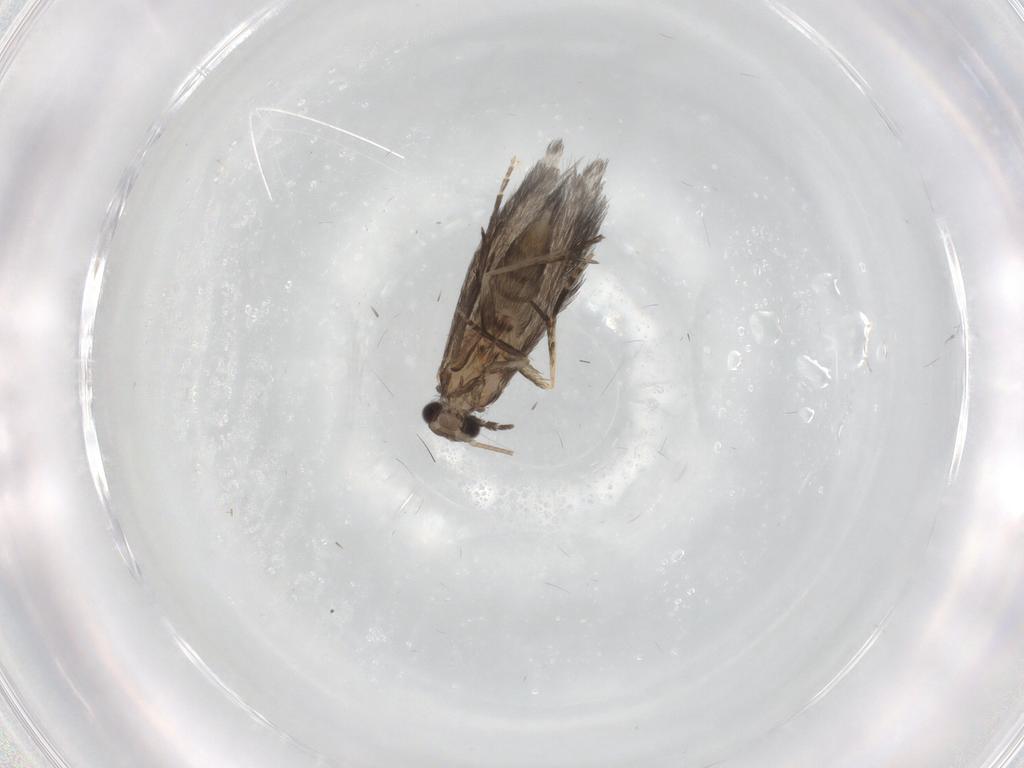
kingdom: Animalia
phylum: Arthropoda
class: Insecta
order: Trichoptera
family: Hydroptilidae
